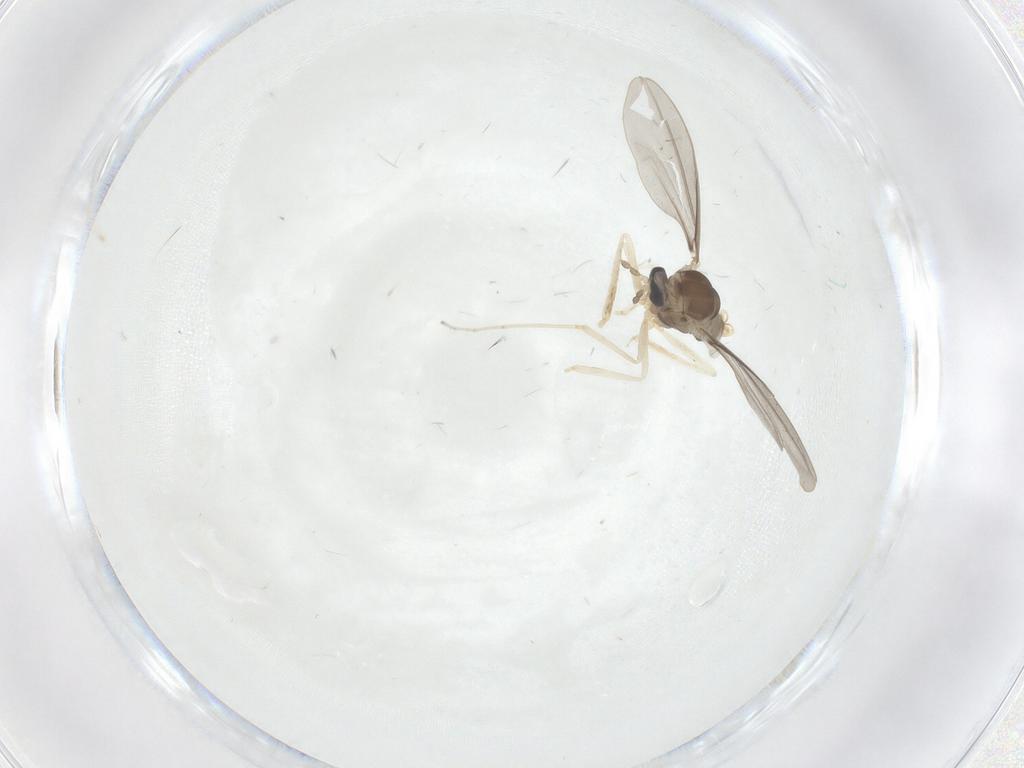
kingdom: Animalia
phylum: Arthropoda
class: Insecta
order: Diptera
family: Cecidomyiidae
